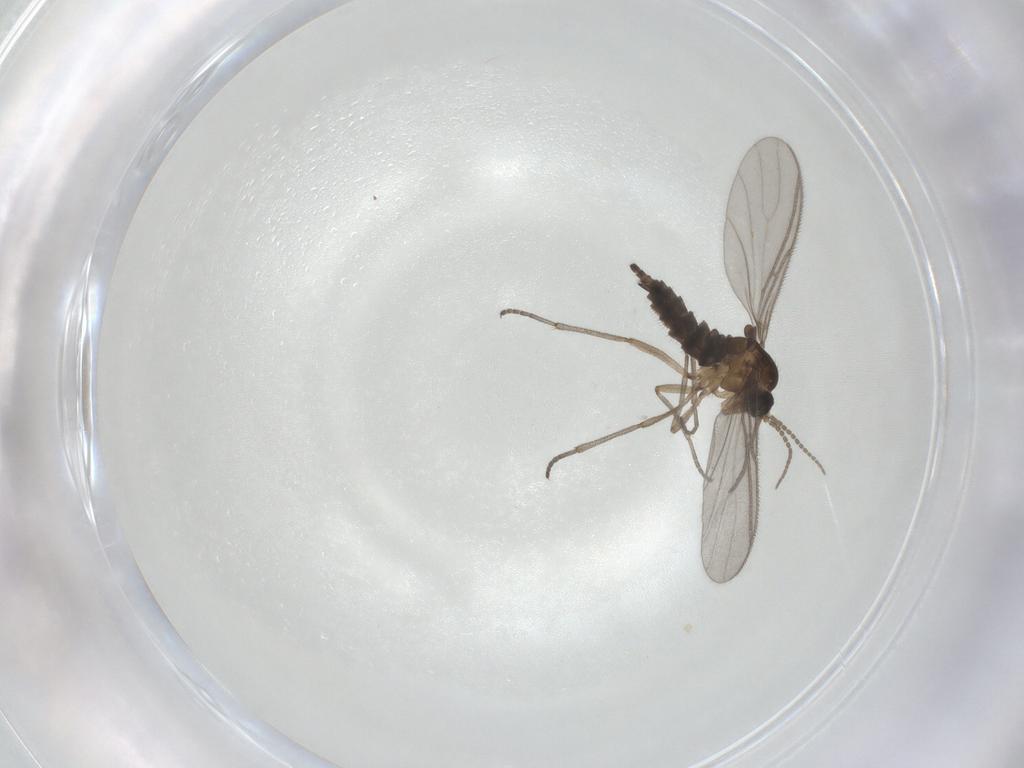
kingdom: Animalia
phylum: Arthropoda
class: Insecta
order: Diptera
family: Sciaridae
